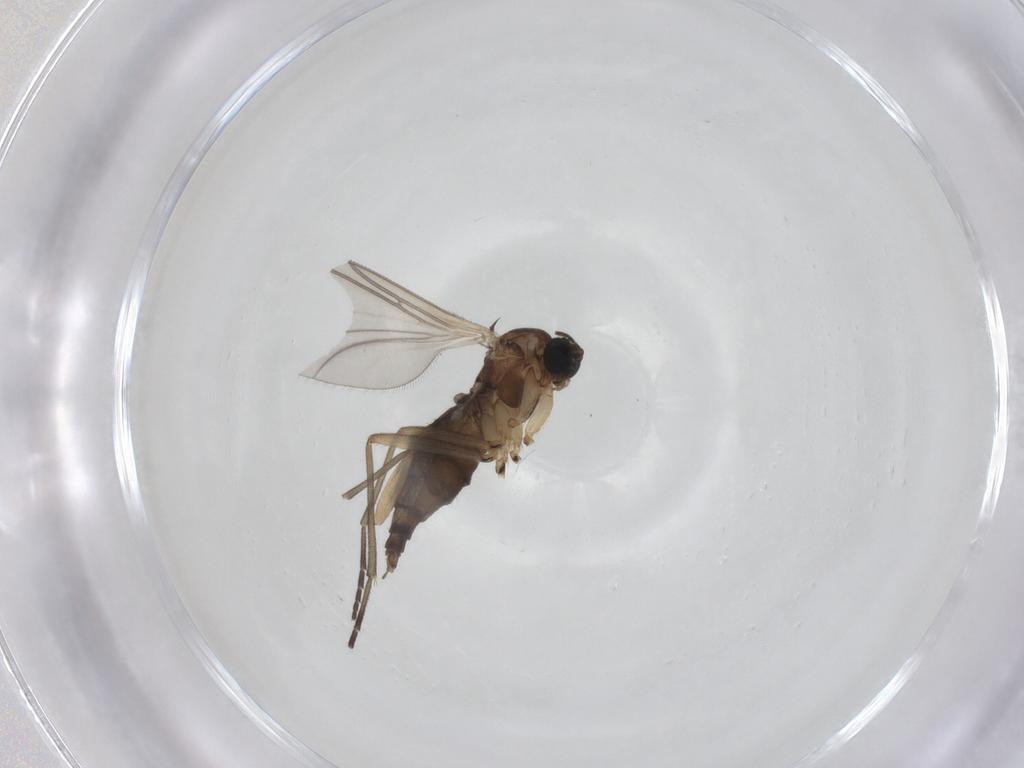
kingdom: Animalia
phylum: Arthropoda
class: Insecta
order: Diptera
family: Sciaridae
